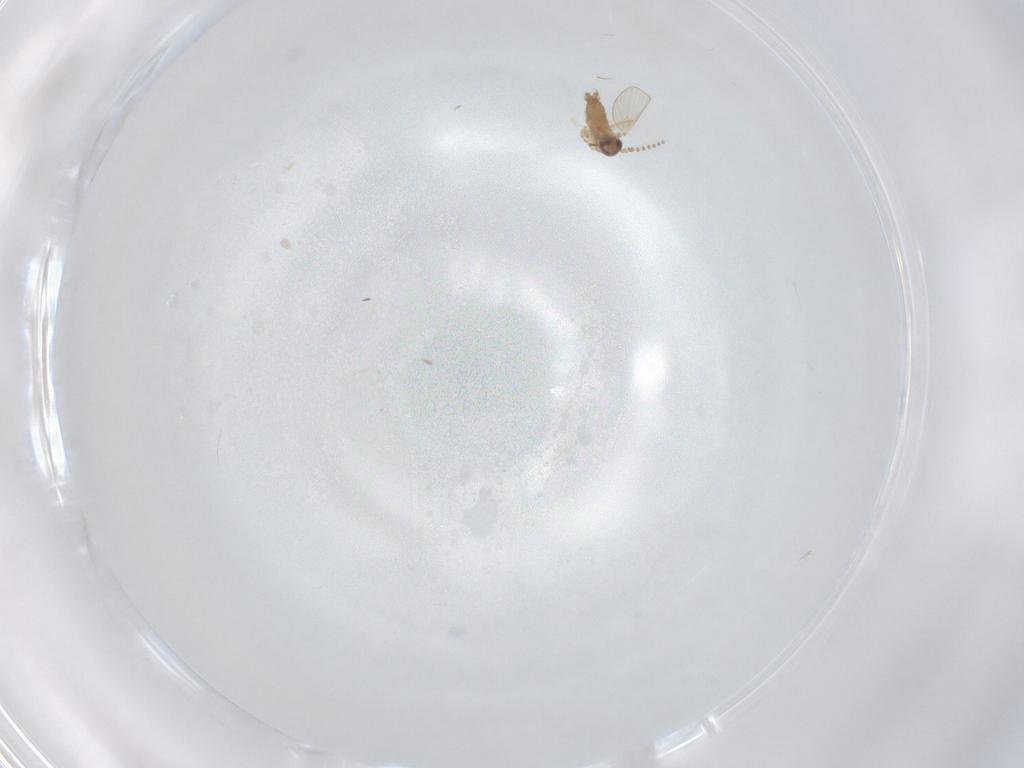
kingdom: Animalia
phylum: Arthropoda
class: Insecta
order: Diptera
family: Psychodidae
